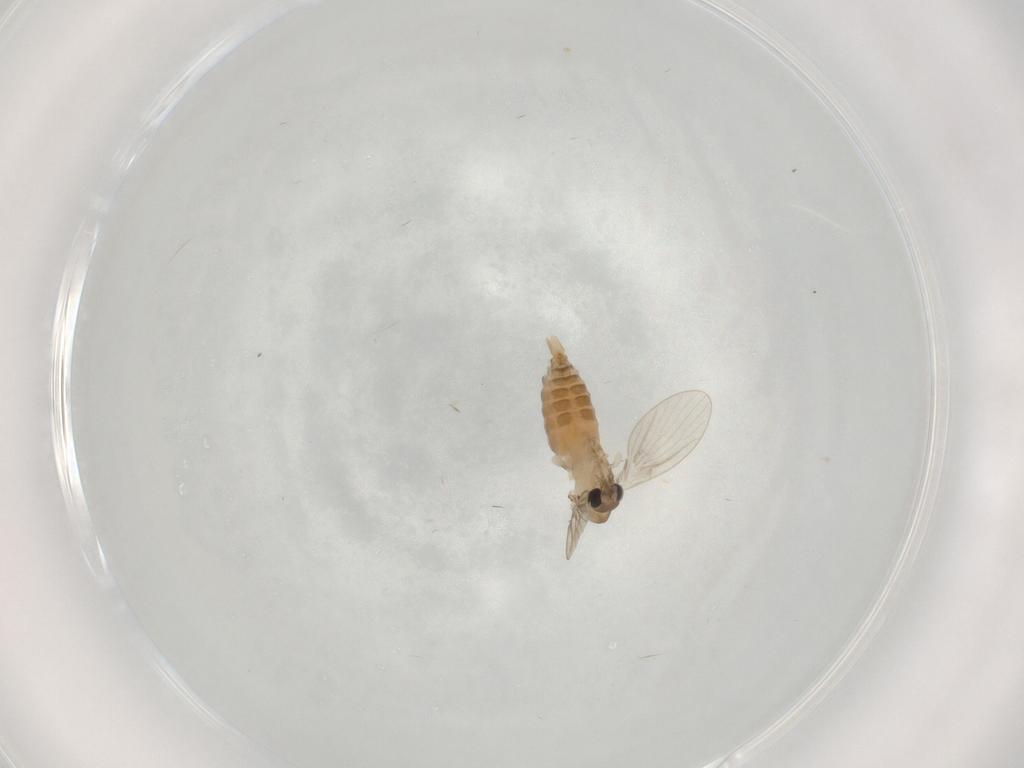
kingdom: Animalia
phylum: Arthropoda
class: Insecta
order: Diptera
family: Psychodidae
